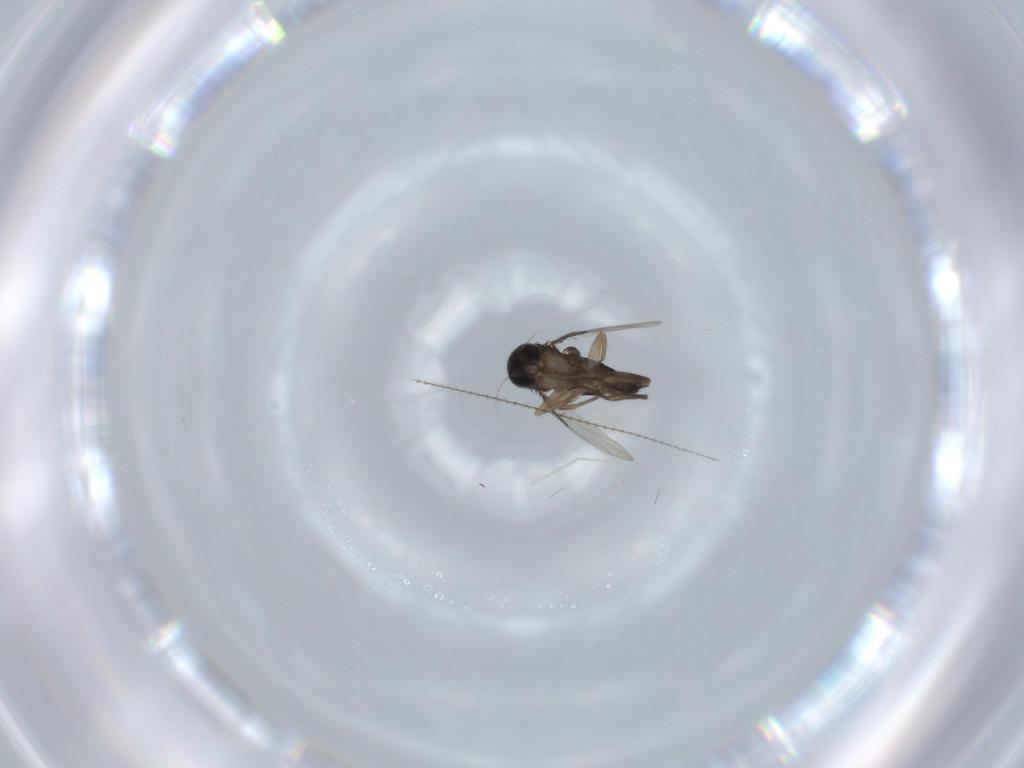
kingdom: Animalia
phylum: Arthropoda
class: Insecta
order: Diptera
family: Phoridae
